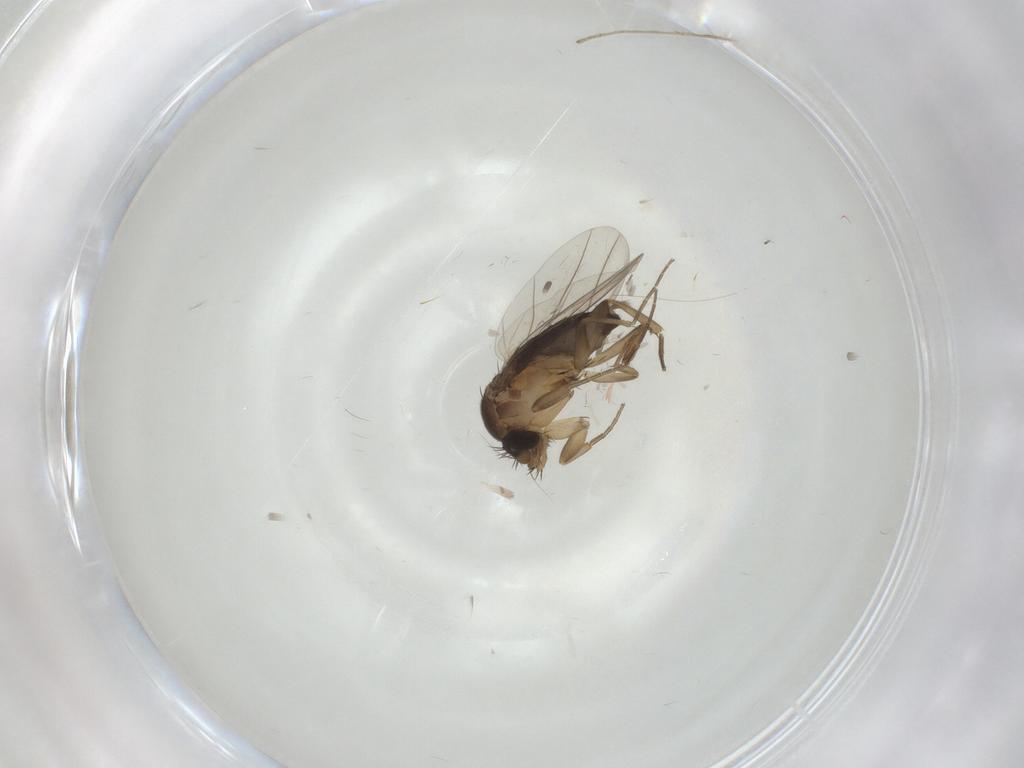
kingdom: Animalia
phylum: Arthropoda
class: Insecta
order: Diptera
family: Phoridae
